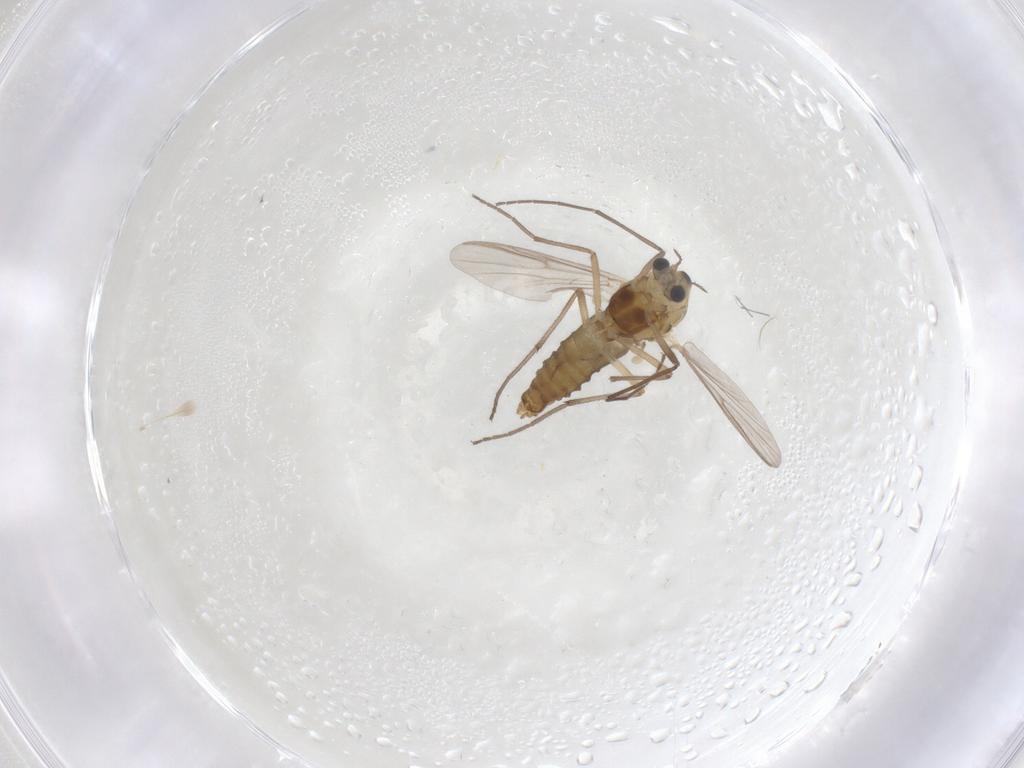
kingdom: Animalia
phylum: Arthropoda
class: Insecta
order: Diptera
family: Chironomidae
